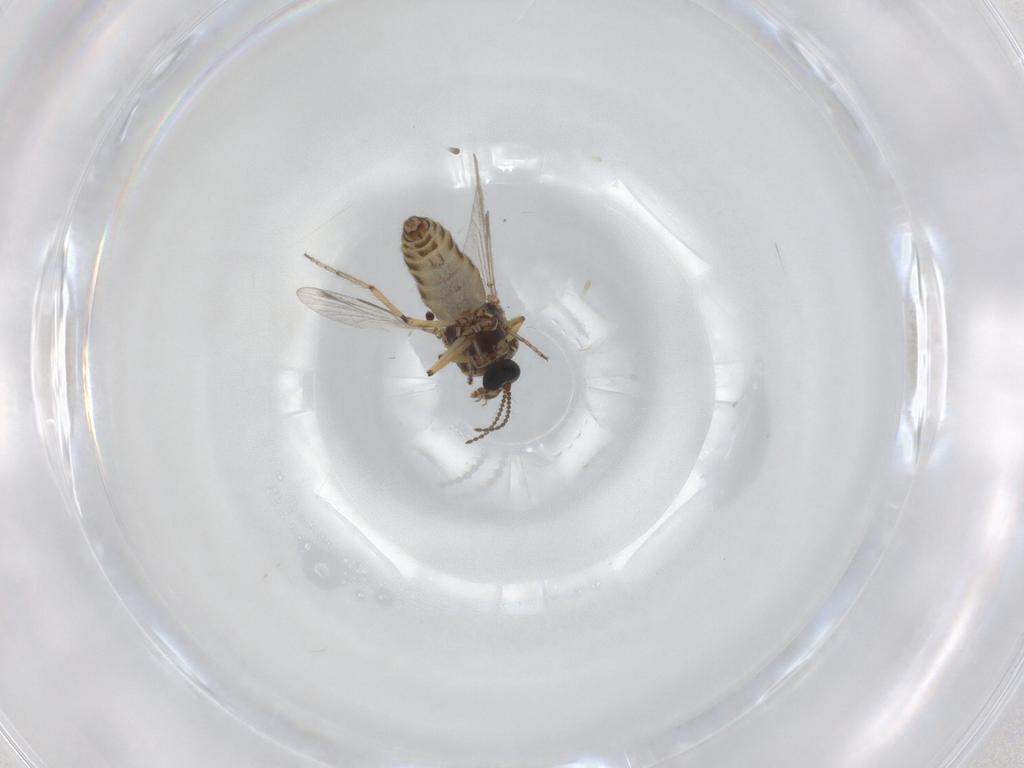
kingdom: Animalia
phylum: Arthropoda
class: Insecta
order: Diptera
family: Ceratopogonidae
